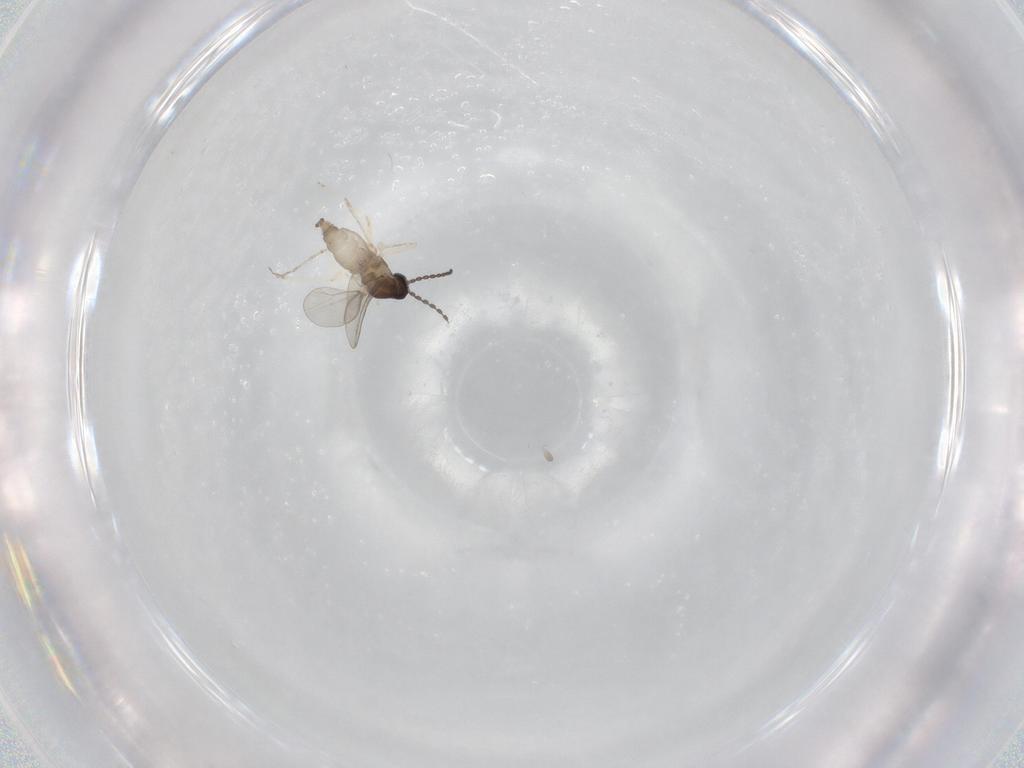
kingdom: Animalia
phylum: Arthropoda
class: Insecta
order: Diptera
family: Cecidomyiidae
